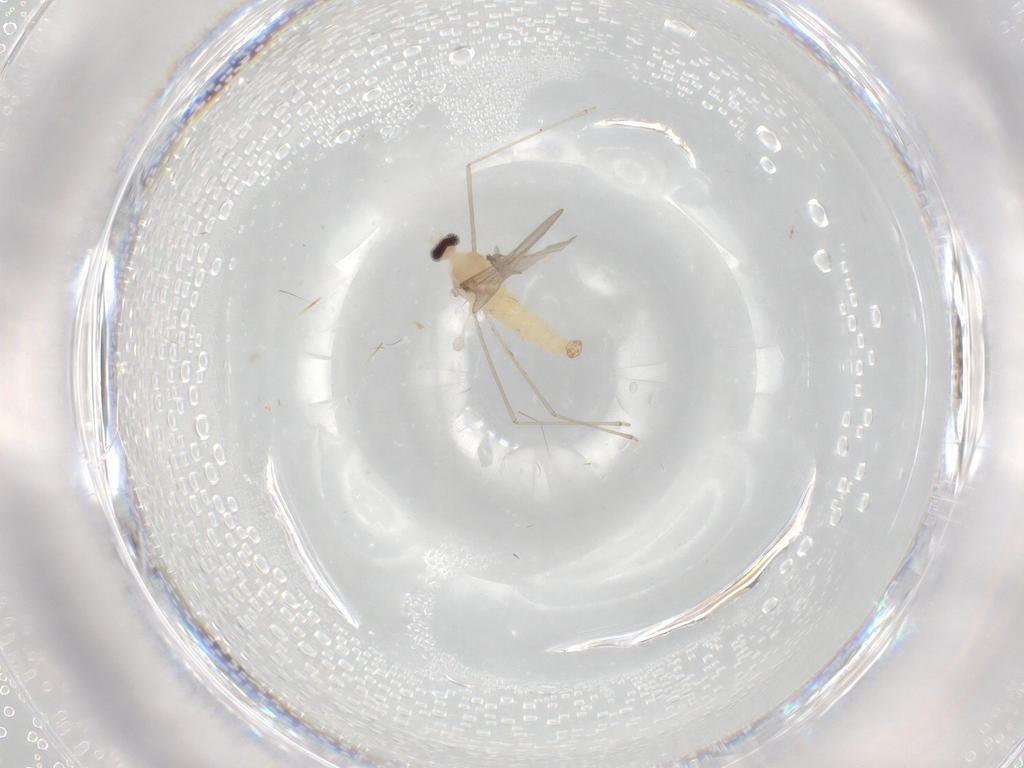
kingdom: Animalia
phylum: Arthropoda
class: Insecta
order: Diptera
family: Cecidomyiidae
